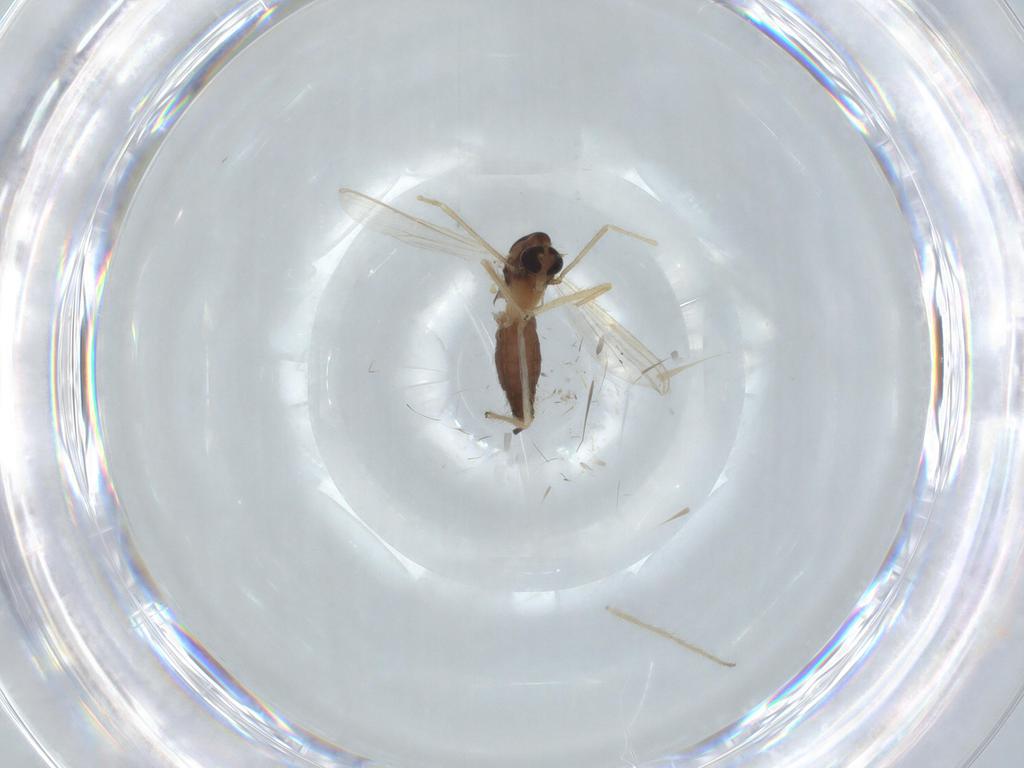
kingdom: Animalia
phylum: Arthropoda
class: Insecta
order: Diptera
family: Chironomidae
